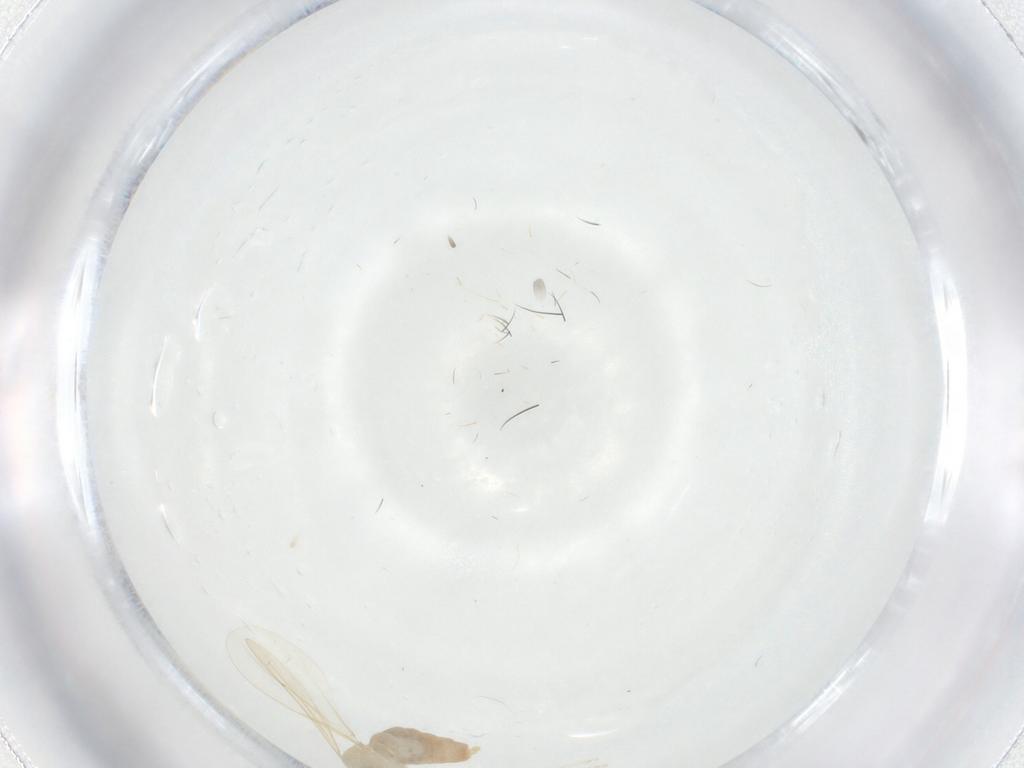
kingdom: Animalia
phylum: Arthropoda
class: Insecta
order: Diptera
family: Cecidomyiidae
